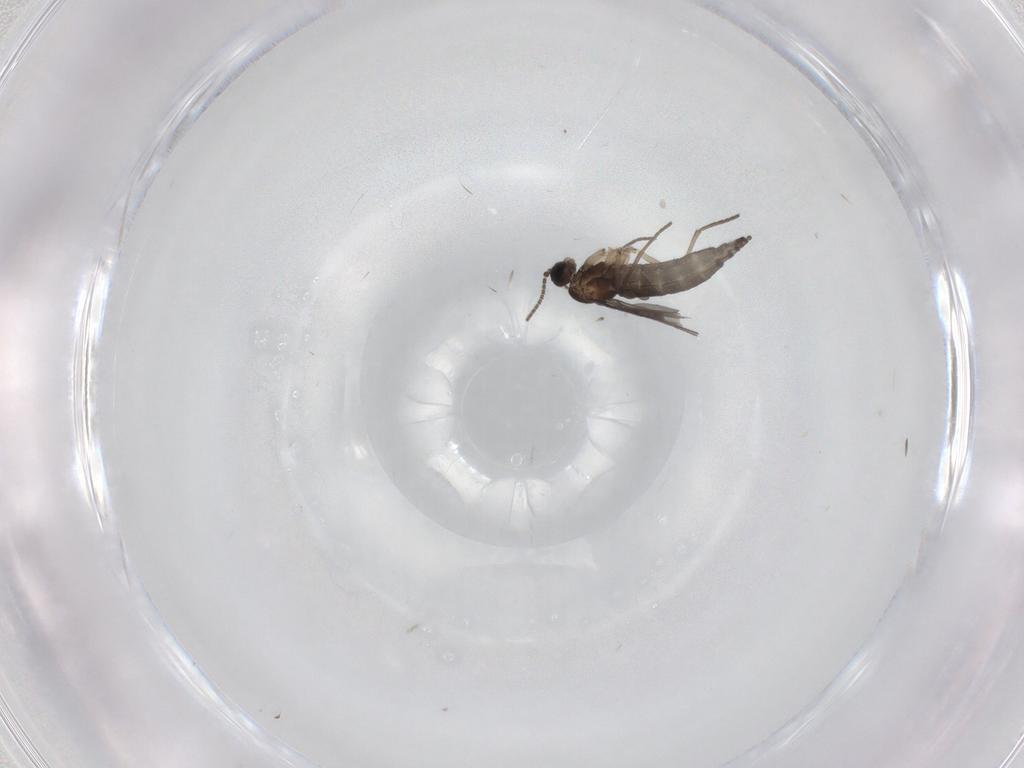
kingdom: Animalia
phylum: Arthropoda
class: Insecta
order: Diptera
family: Sciaridae
